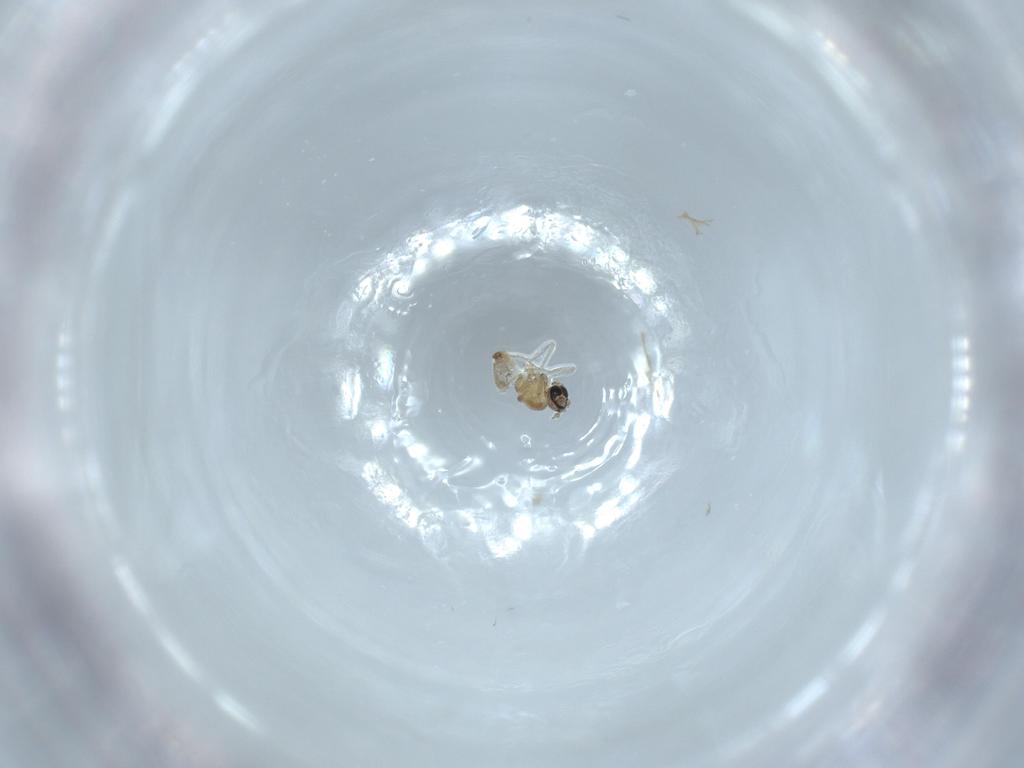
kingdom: Animalia
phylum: Arthropoda
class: Insecta
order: Diptera
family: Cecidomyiidae
